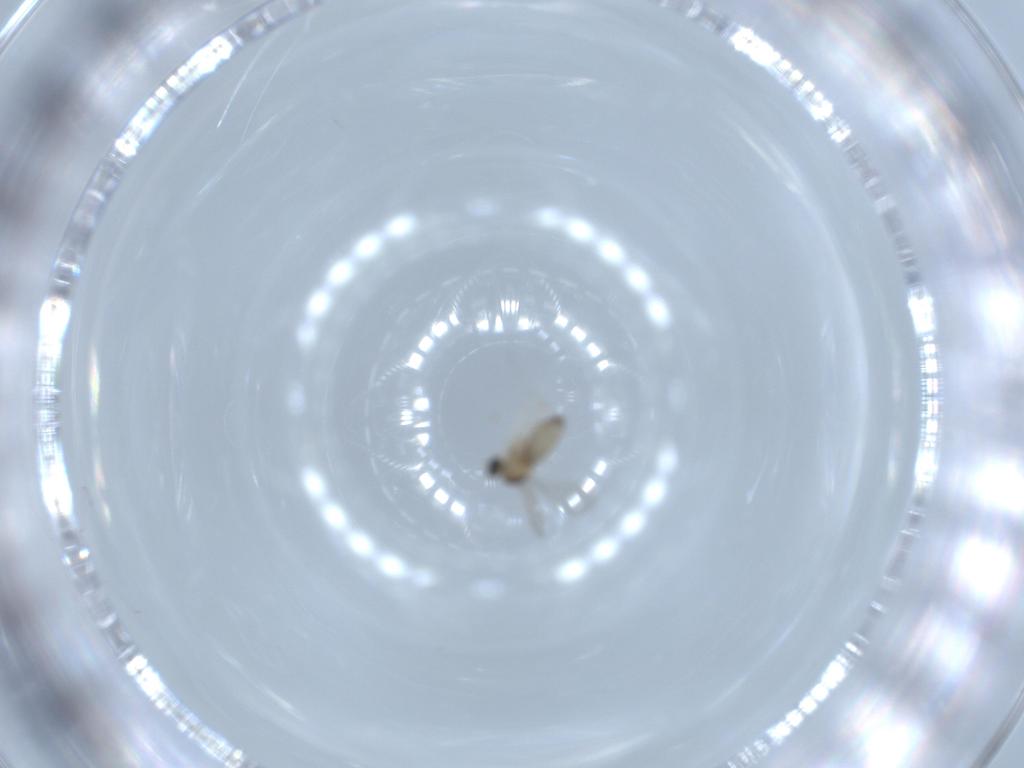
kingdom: Animalia
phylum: Arthropoda
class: Insecta
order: Diptera
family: Cecidomyiidae
